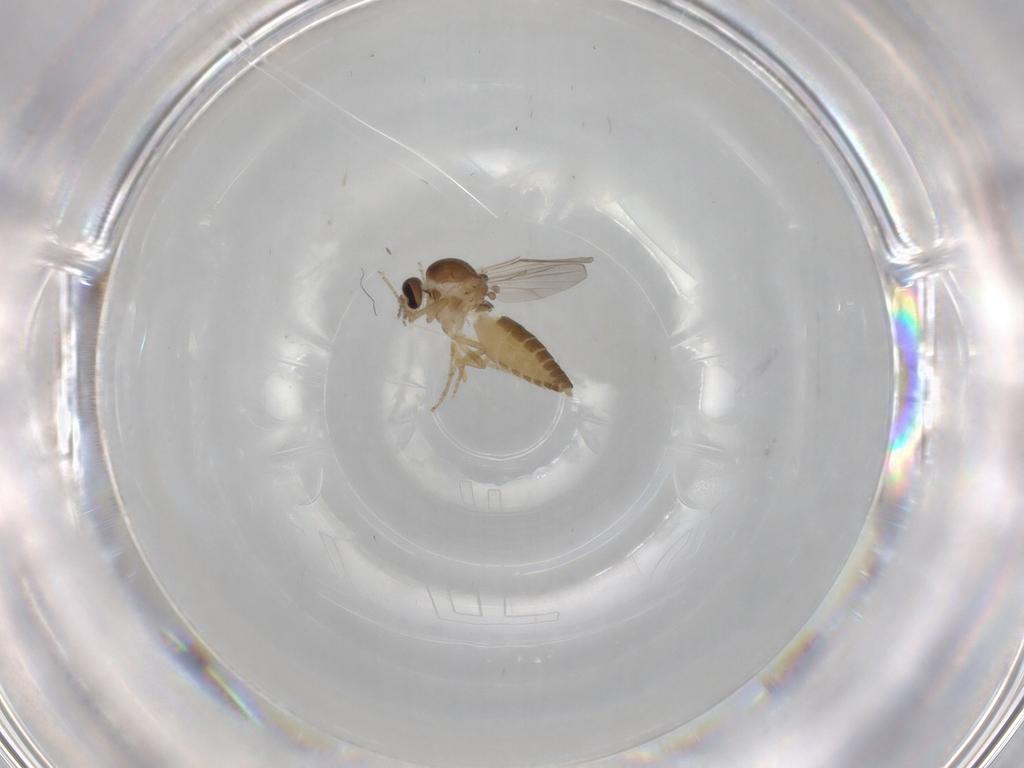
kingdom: Animalia
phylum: Arthropoda
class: Insecta
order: Diptera
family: Ceratopogonidae
